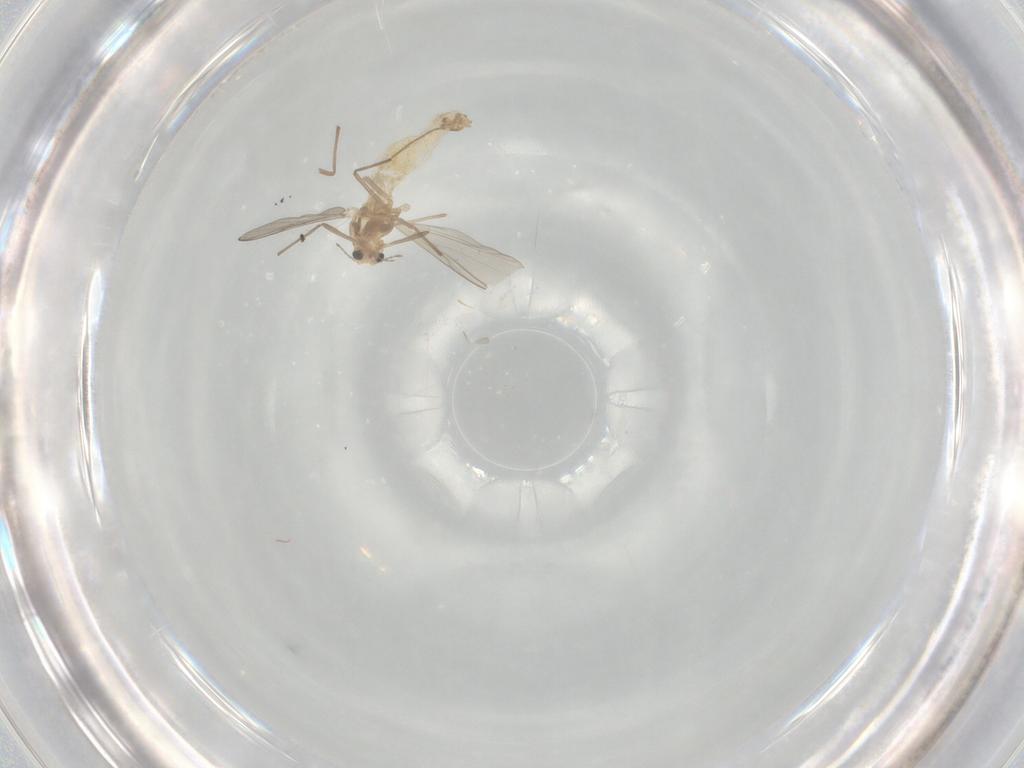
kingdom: Animalia
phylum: Arthropoda
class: Insecta
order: Diptera
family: Chironomidae
